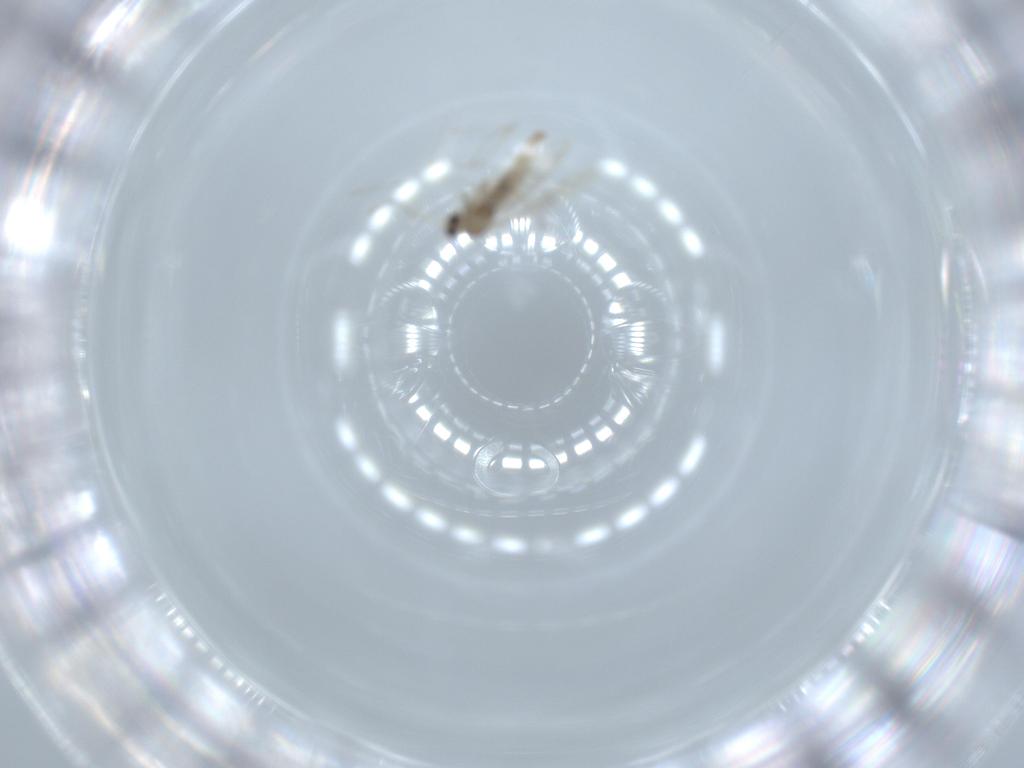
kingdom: Animalia
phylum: Arthropoda
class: Insecta
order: Diptera
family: Cecidomyiidae
